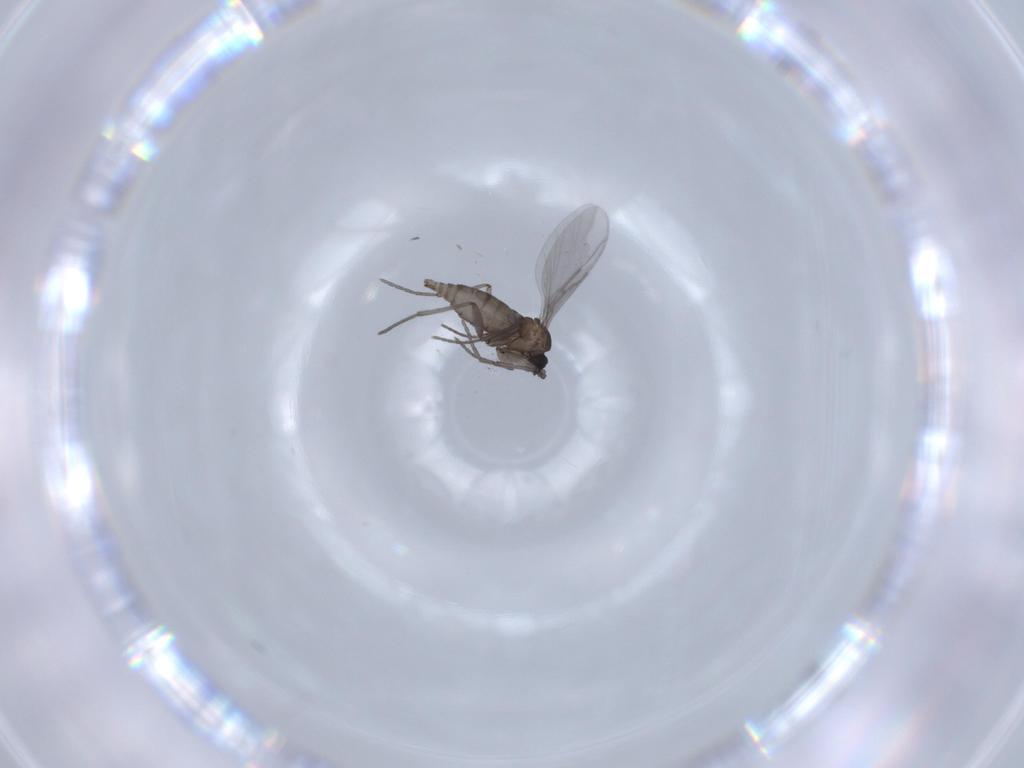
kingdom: Animalia
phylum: Arthropoda
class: Insecta
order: Diptera
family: Sciaridae
